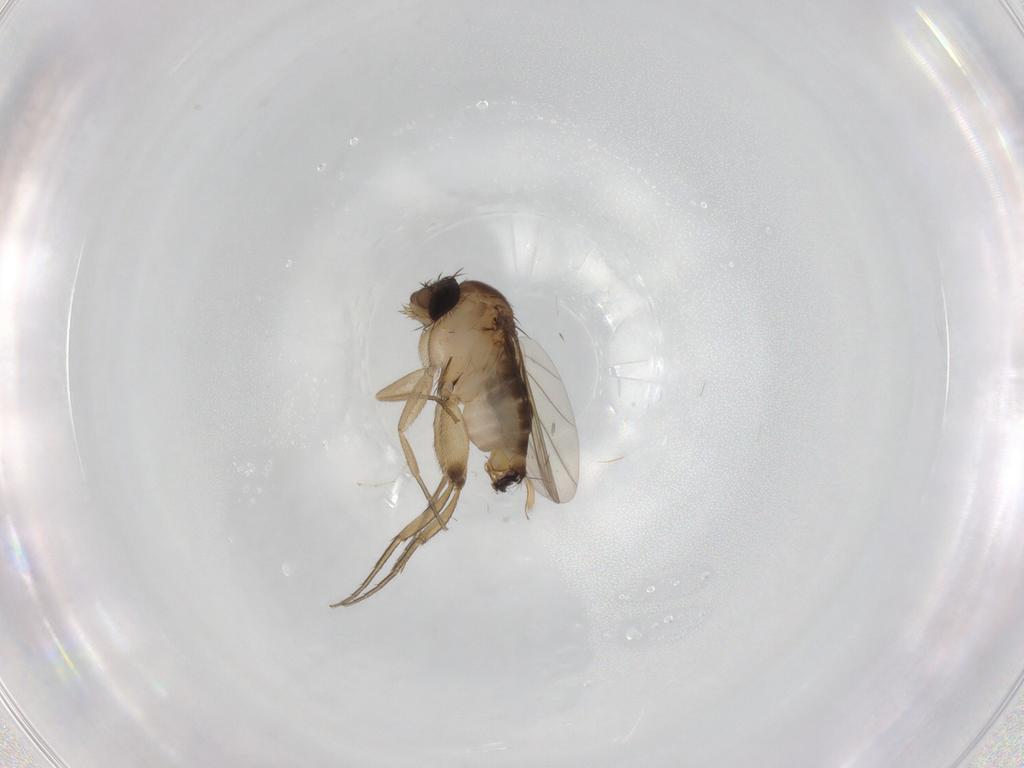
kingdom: Animalia
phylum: Arthropoda
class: Insecta
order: Diptera
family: Phoridae
